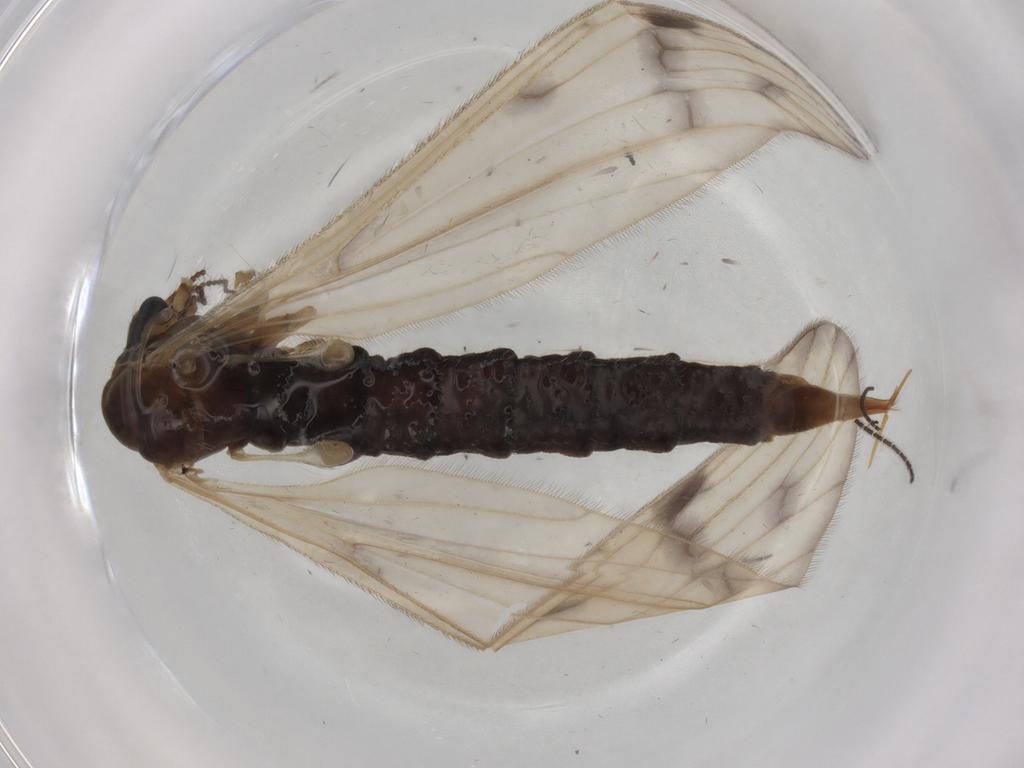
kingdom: Animalia
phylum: Arthropoda
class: Insecta
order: Diptera
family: Limoniidae
